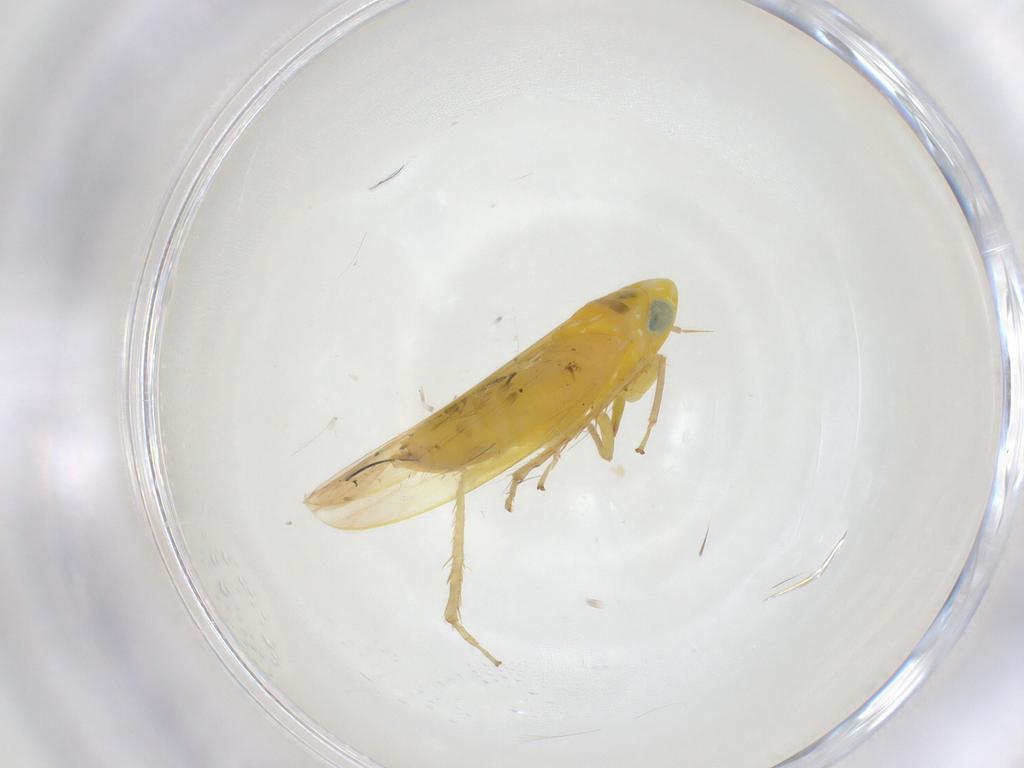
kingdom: Animalia
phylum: Arthropoda
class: Insecta
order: Hemiptera
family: Cicadellidae
